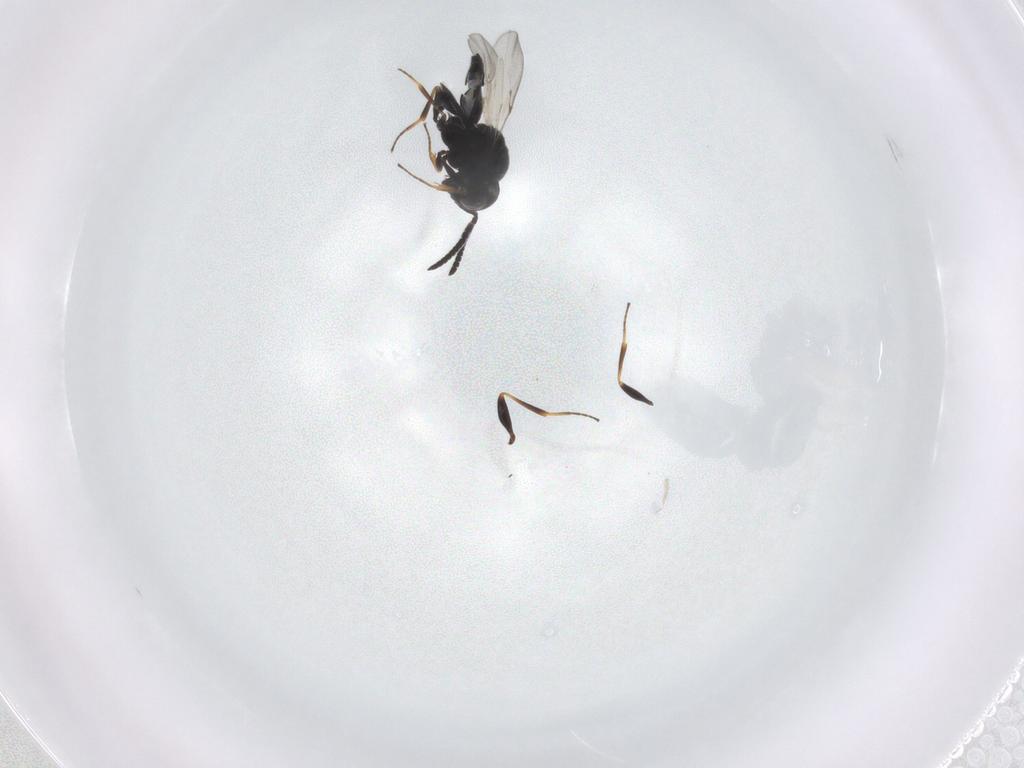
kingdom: Animalia
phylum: Arthropoda
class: Insecta
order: Hymenoptera
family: Scelionidae
